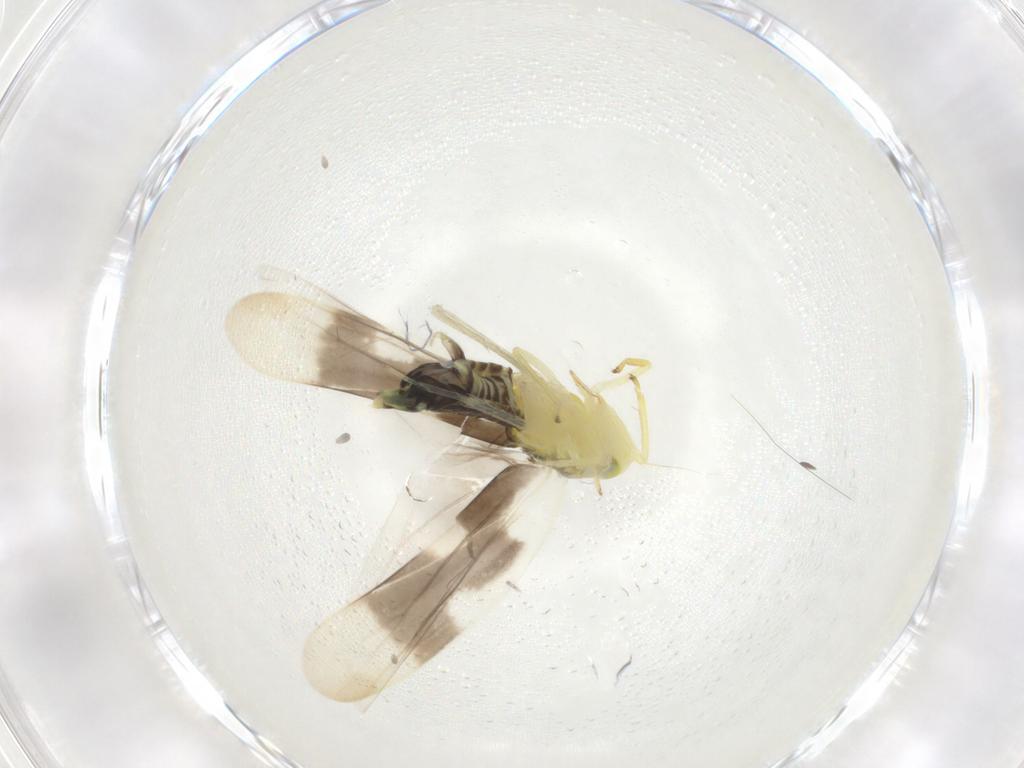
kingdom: Animalia
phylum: Arthropoda
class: Insecta
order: Hemiptera
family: Cicadellidae
